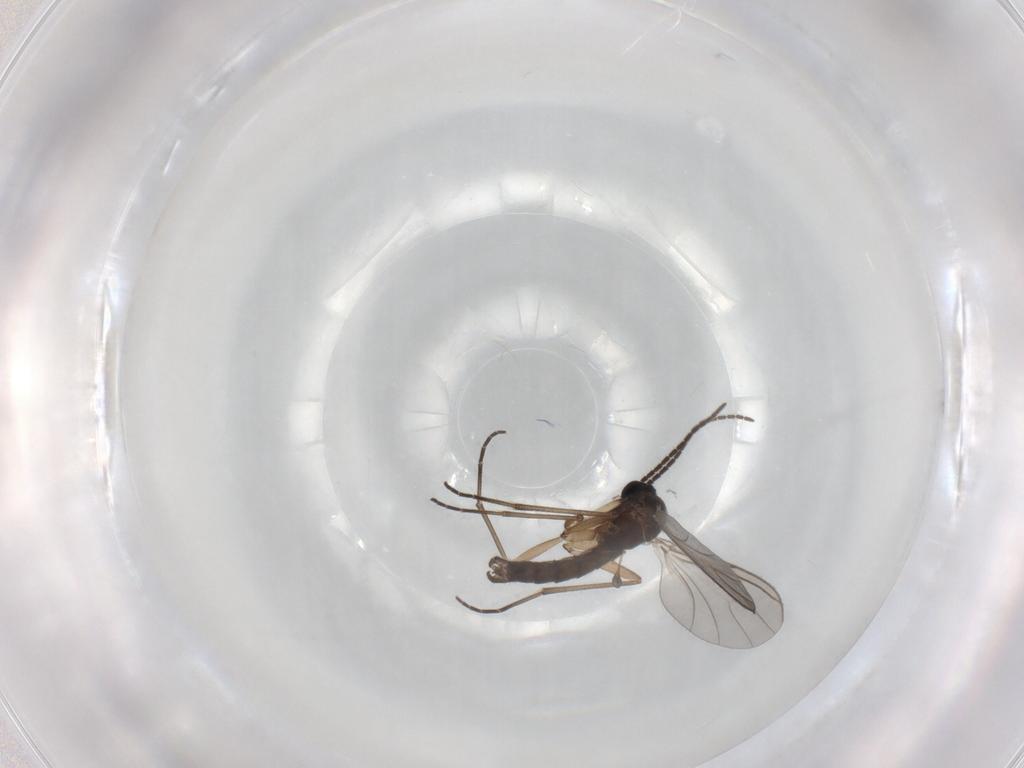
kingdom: Animalia
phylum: Arthropoda
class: Insecta
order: Diptera
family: Sciaridae
